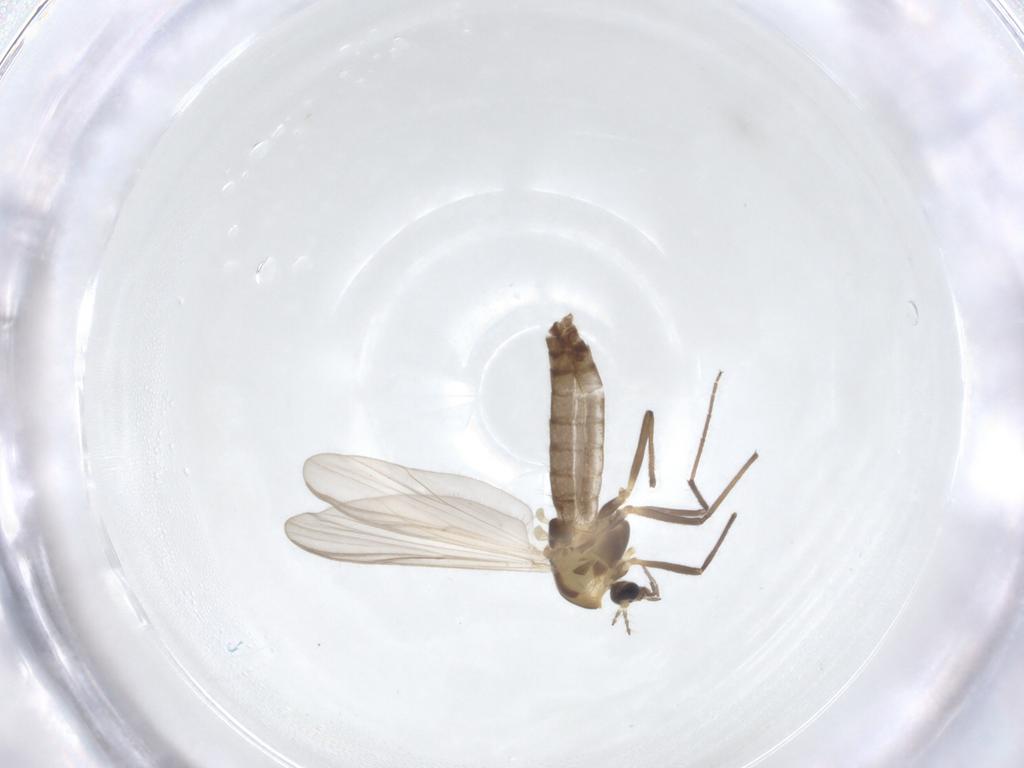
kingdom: Animalia
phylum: Arthropoda
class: Insecta
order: Diptera
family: Chironomidae
